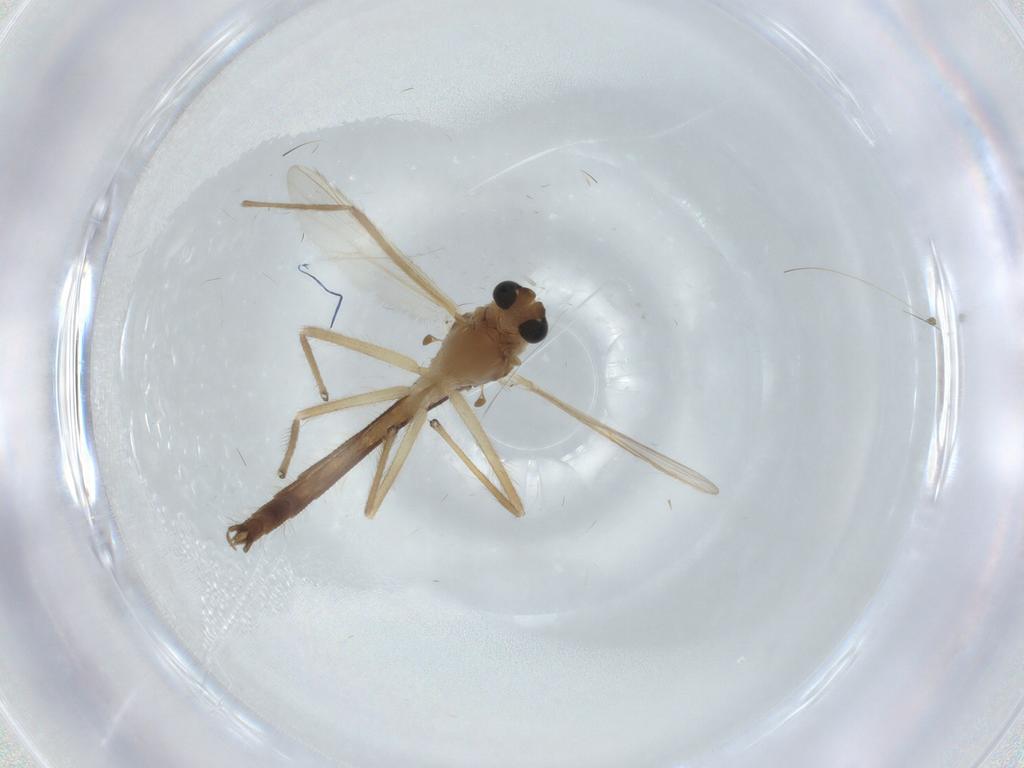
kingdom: Animalia
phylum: Arthropoda
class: Insecta
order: Diptera
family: Chironomidae
